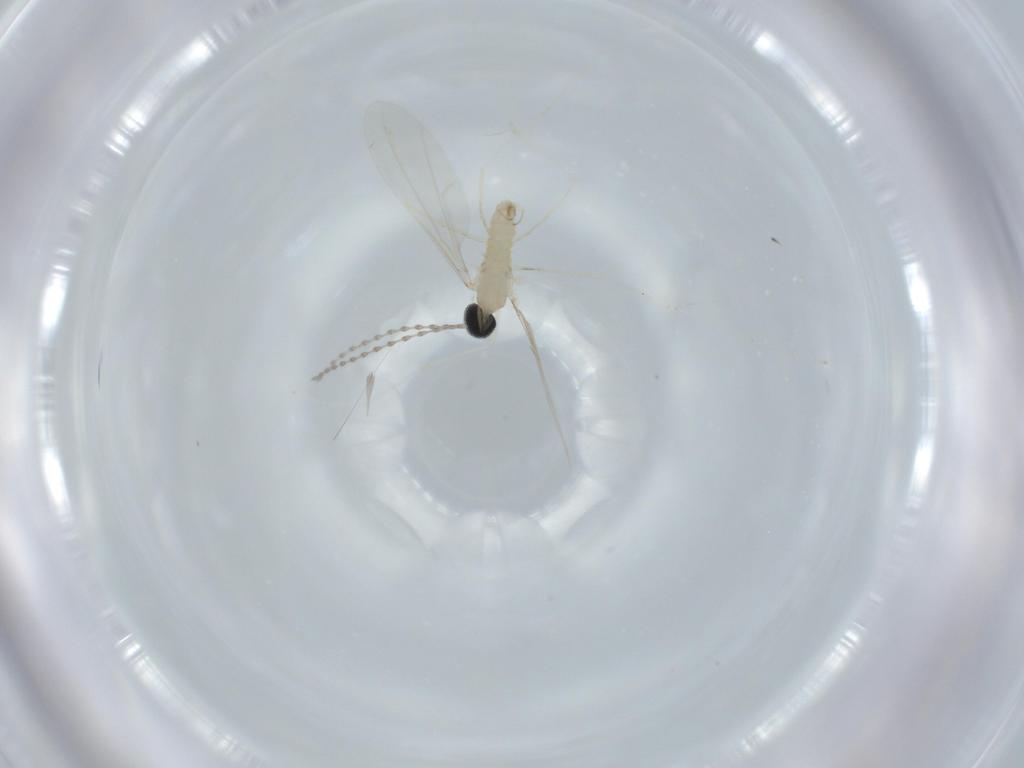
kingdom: Animalia
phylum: Arthropoda
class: Insecta
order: Diptera
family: Cecidomyiidae
